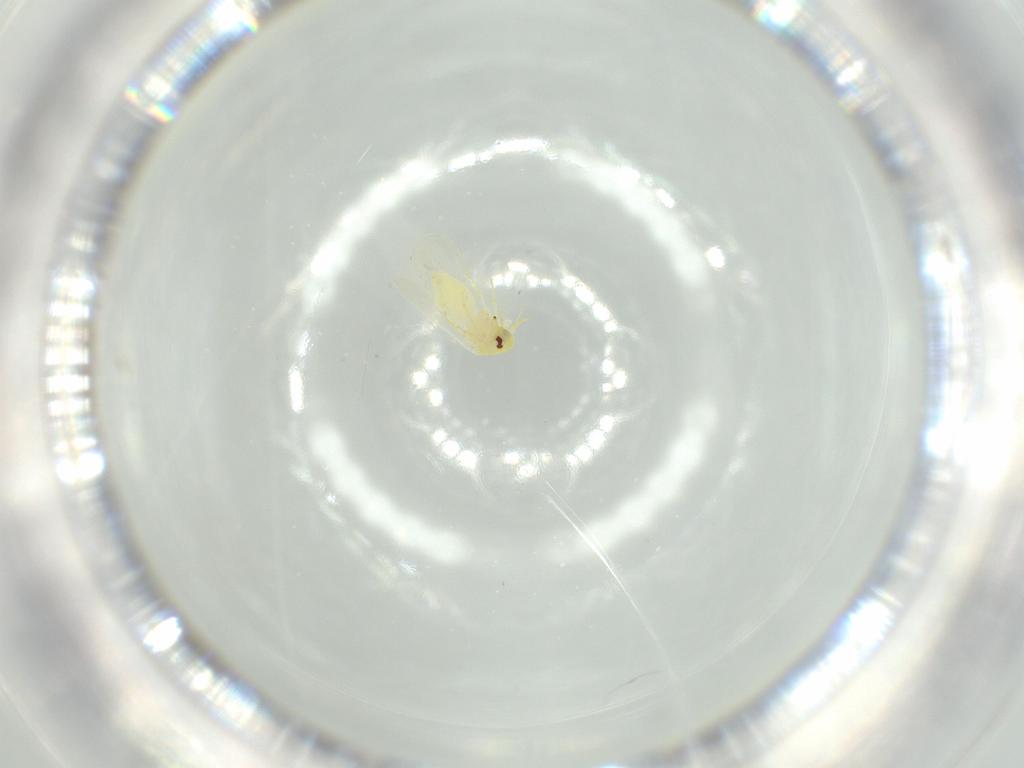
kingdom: Animalia
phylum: Arthropoda
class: Insecta
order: Hemiptera
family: Aleyrodidae
